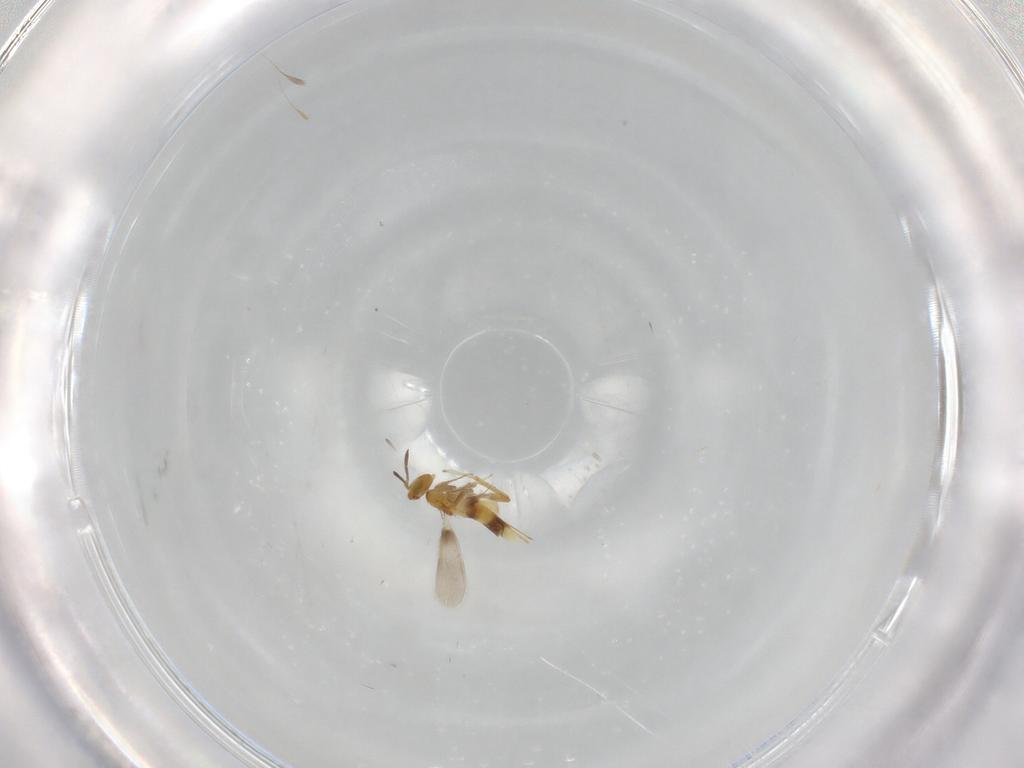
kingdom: Animalia
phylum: Arthropoda
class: Insecta
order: Hymenoptera
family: Aphelinidae
